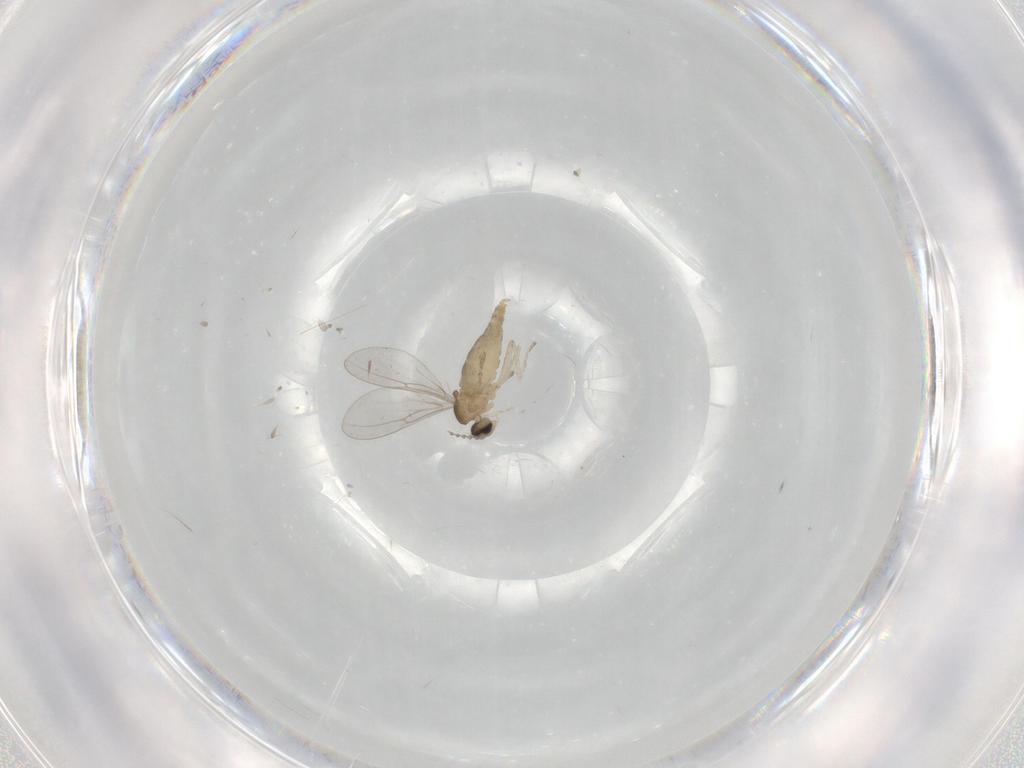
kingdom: Animalia
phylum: Arthropoda
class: Insecta
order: Diptera
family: Cecidomyiidae
